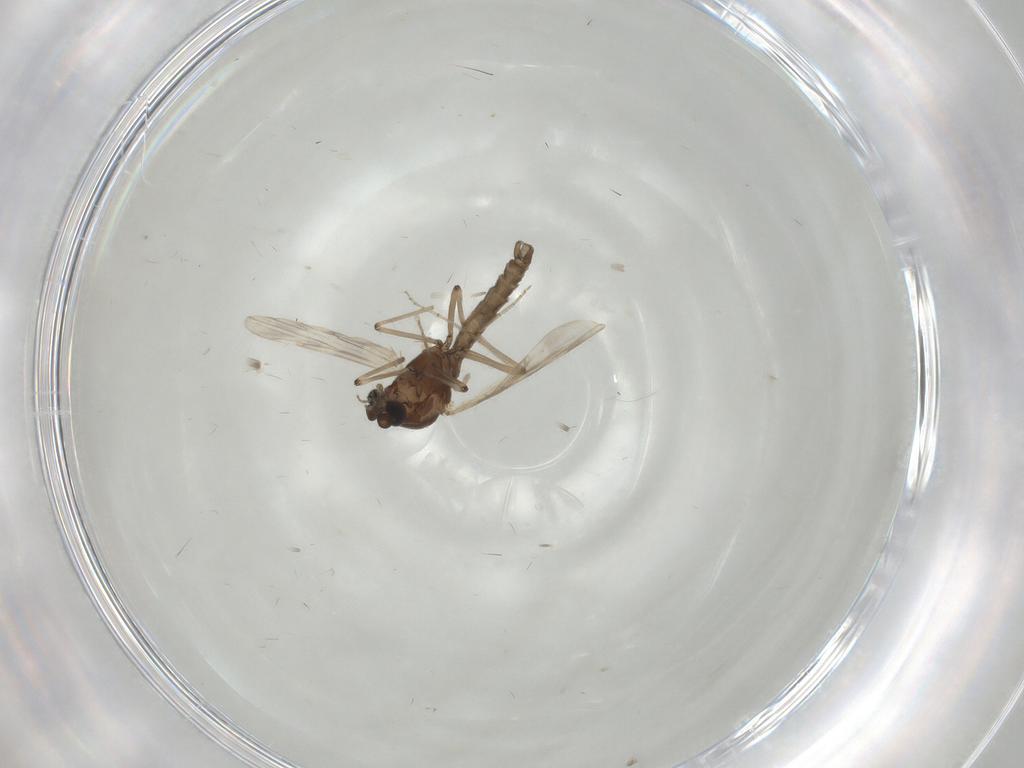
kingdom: Animalia
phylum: Arthropoda
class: Insecta
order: Diptera
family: Ceratopogonidae
